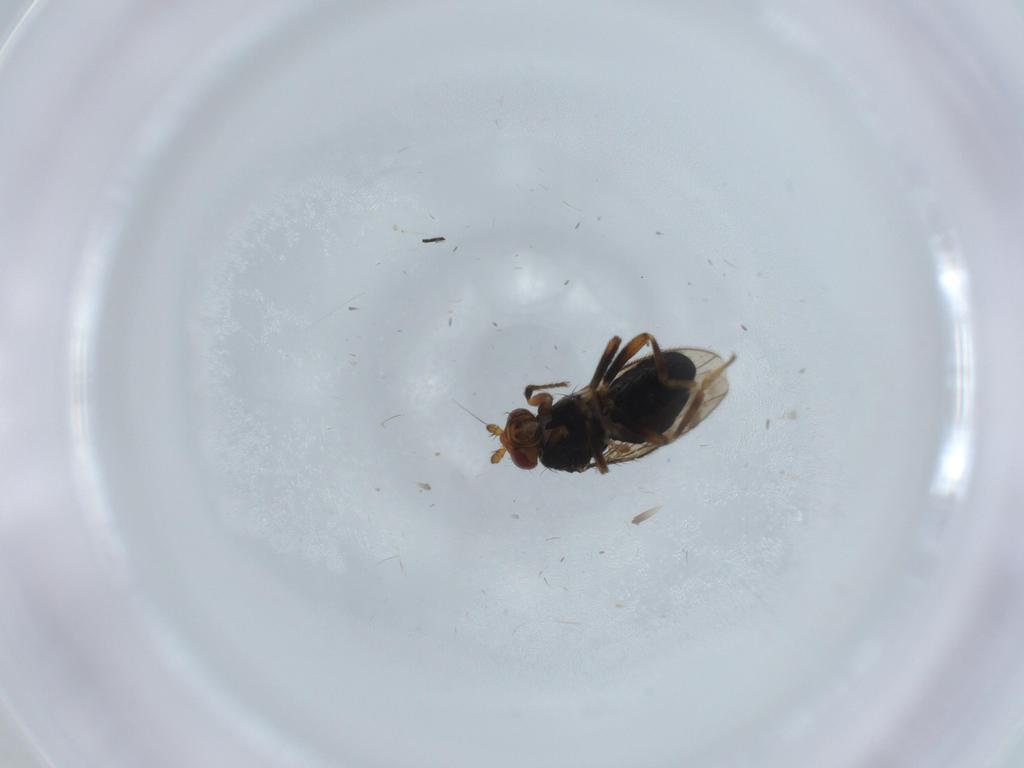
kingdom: Animalia
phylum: Arthropoda
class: Insecta
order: Diptera
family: Sphaeroceridae
